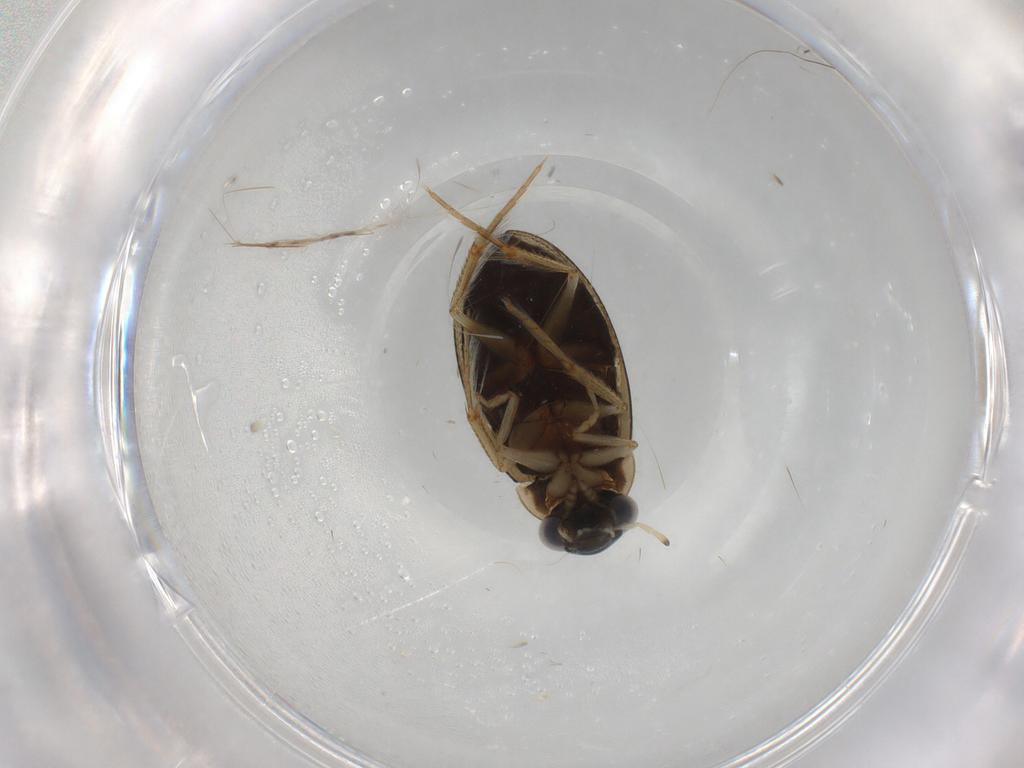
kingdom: Animalia
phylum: Arthropoda
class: Insecta
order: Coleoptera
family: Hydrophilidae
